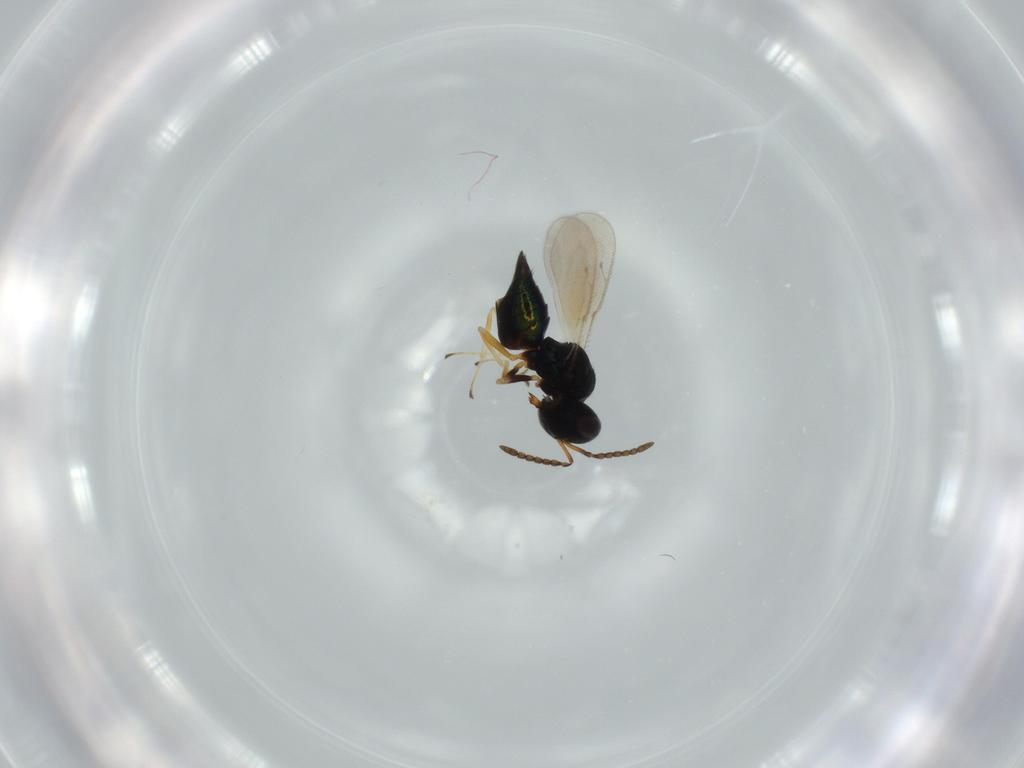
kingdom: Animalia
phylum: Arthropoda
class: Insecta
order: Hymenoptera
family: Pteromalidae
